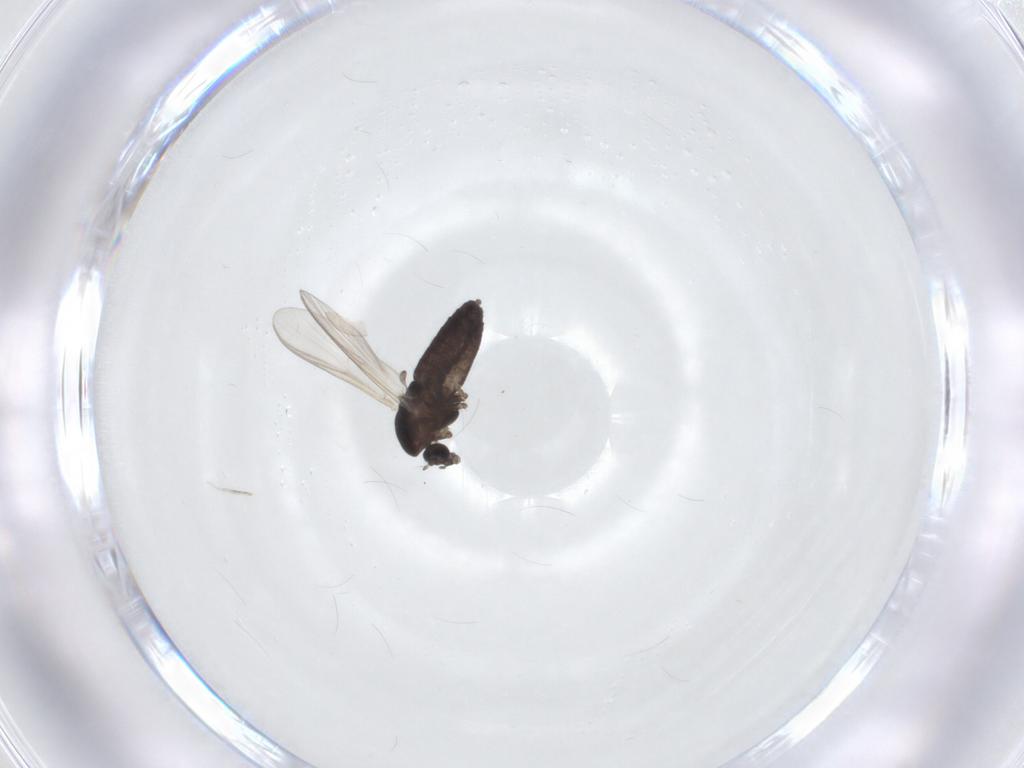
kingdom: Animalia
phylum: Arthropoda
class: Insecta
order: Diptera
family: Chironomidae
